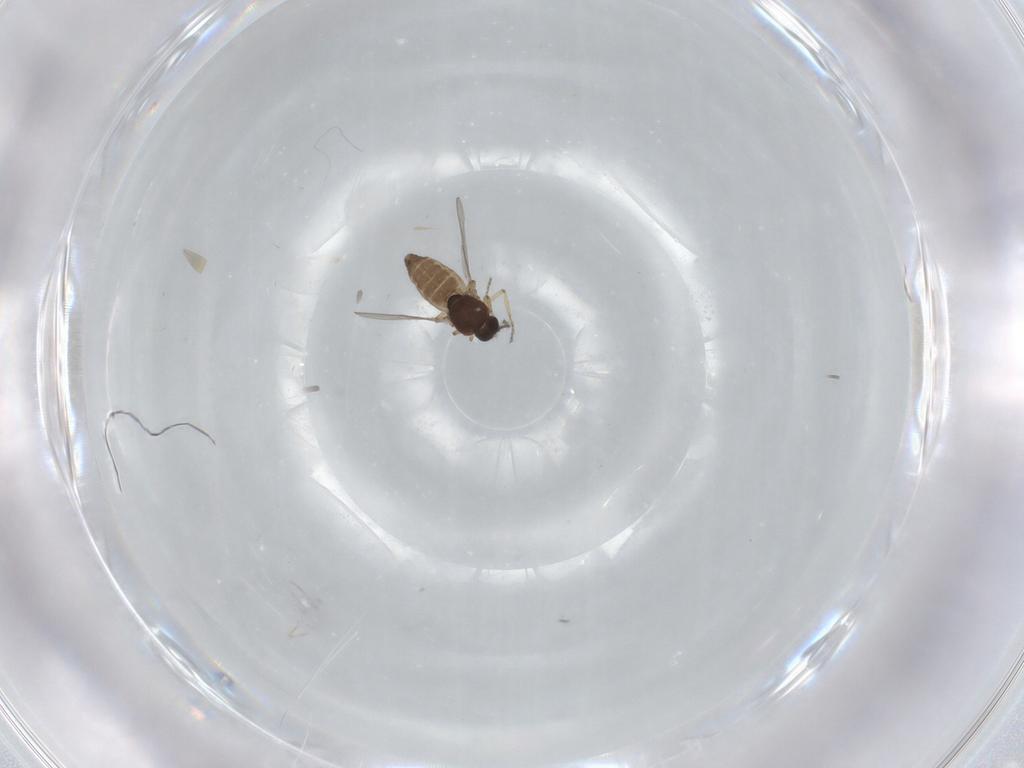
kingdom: Animalia
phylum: Arthropoda
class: Insecta
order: Diptera
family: Ceratopogonidae
